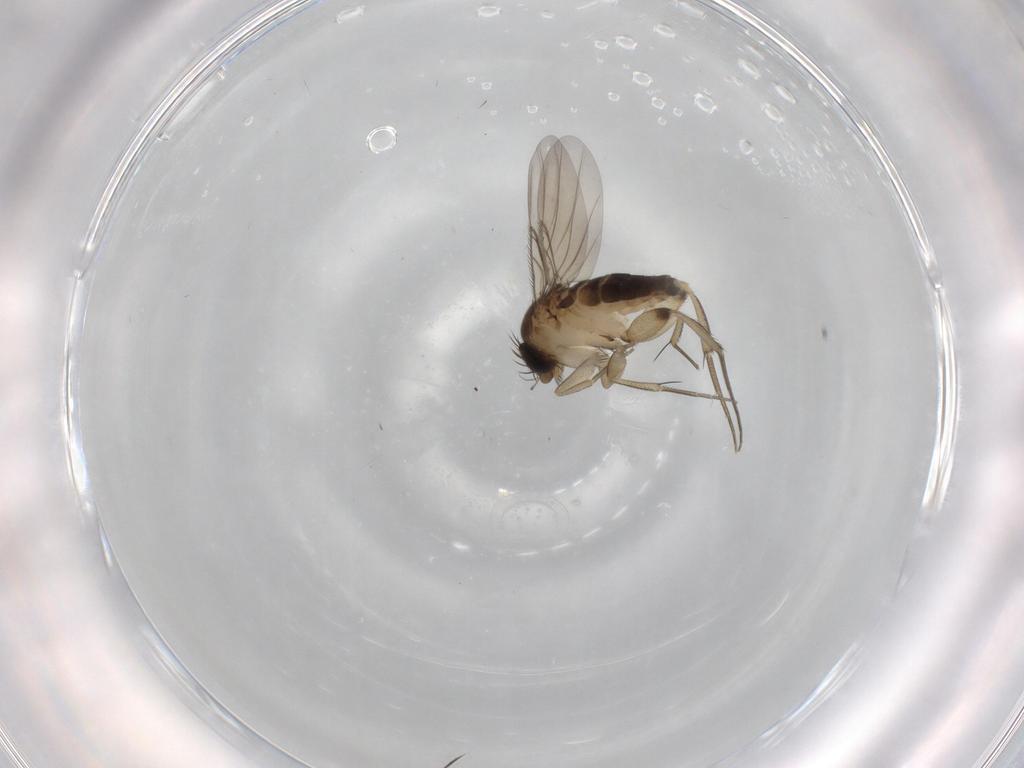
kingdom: Animalia
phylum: Arthropoda
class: Insecta
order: Diptera
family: Phoridae
